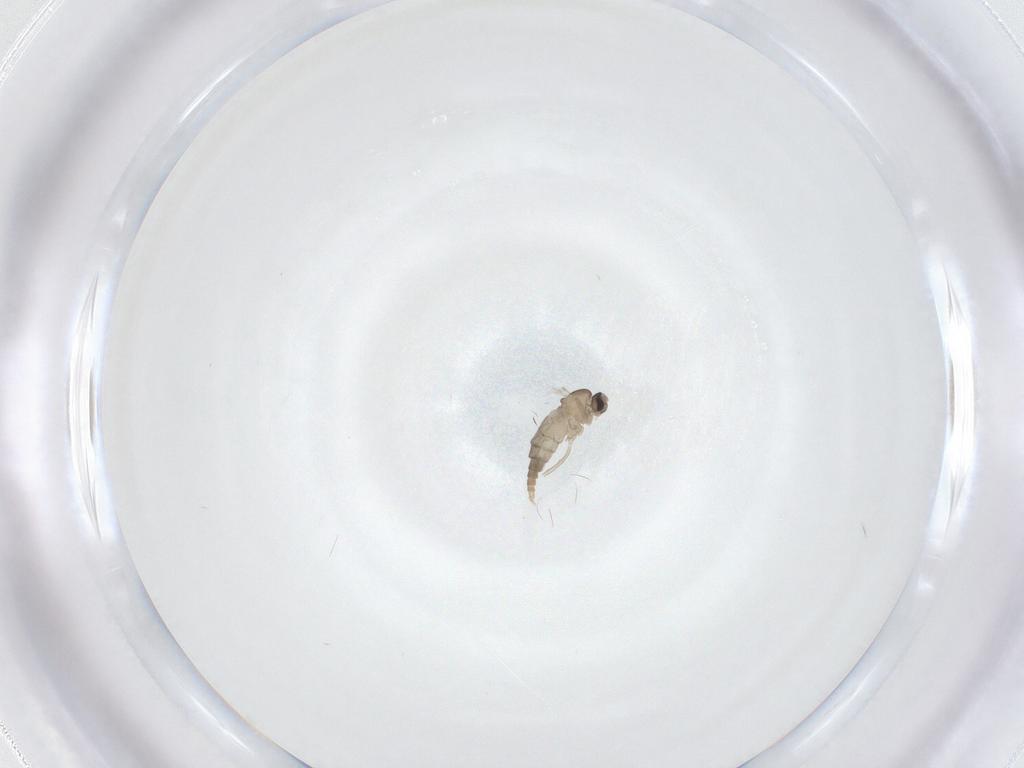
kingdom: Animalia
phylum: Arthropoda
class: Insecta
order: Diptera
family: Cecidomyiidae
